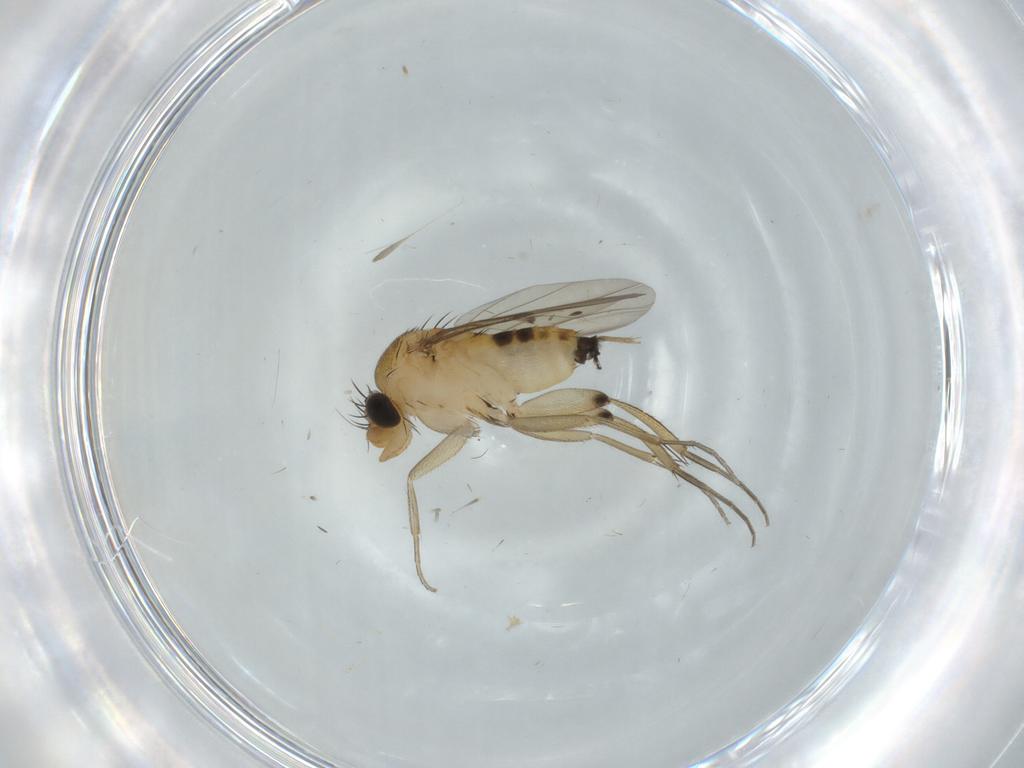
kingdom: Animalia
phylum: Arthropoda
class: Insecta
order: Diptera
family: Phoridae
